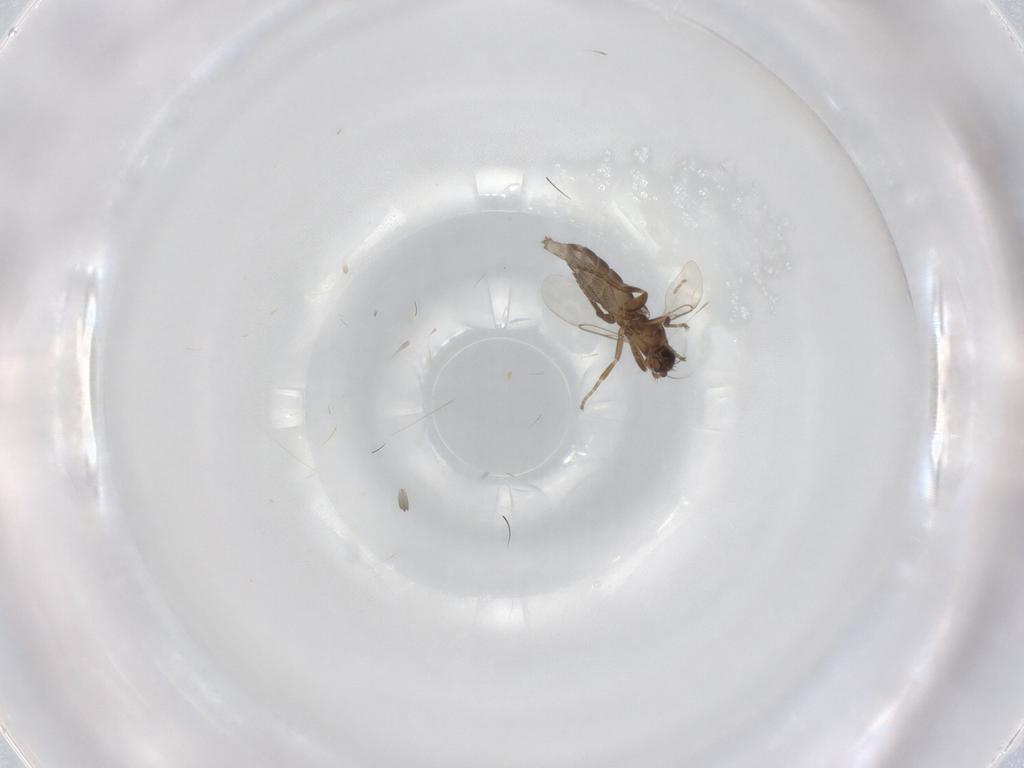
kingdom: Animalia
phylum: Arthropoda
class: Insecta
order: Diptera
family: Phoridae
